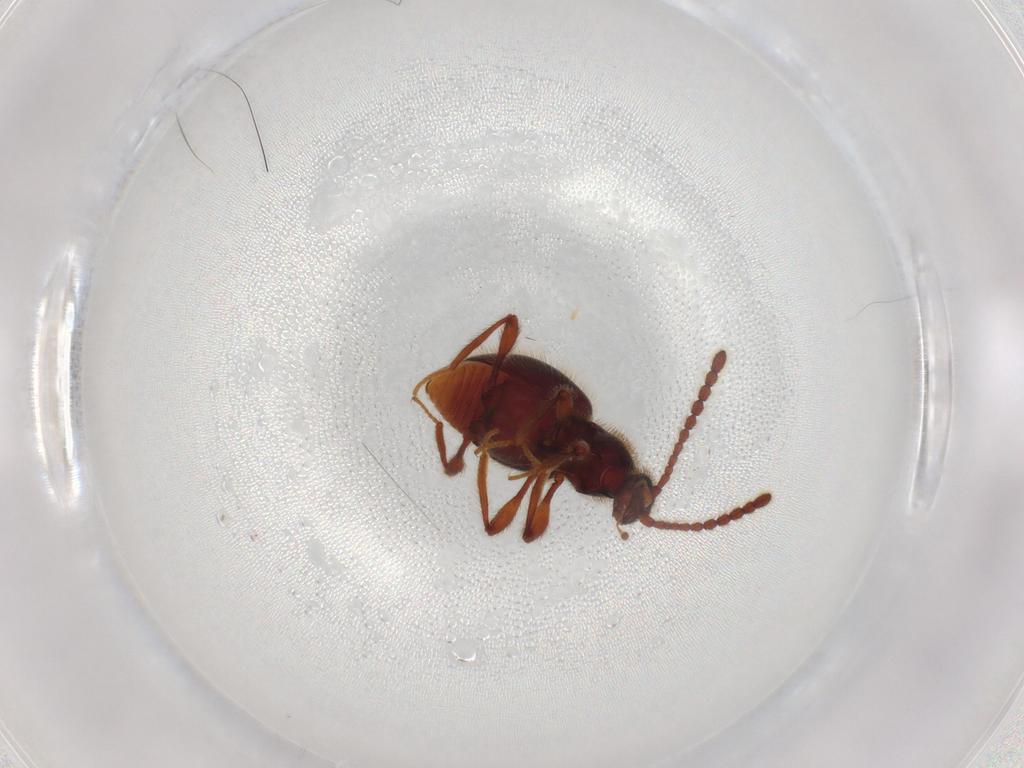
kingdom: Animalia
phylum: Arthropoda
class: Insecta
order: Coleoptera
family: Staphylinidae
